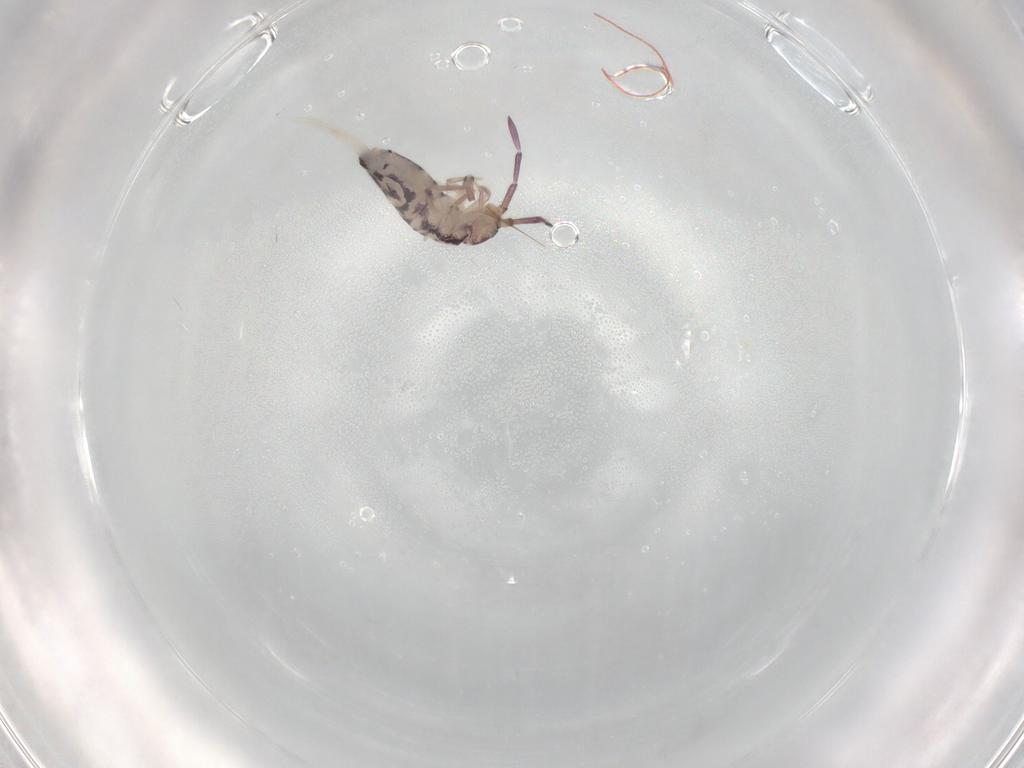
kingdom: Animalia
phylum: Arthropoda
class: Collembola
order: Entomobryomorpha
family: Entomobryidae
